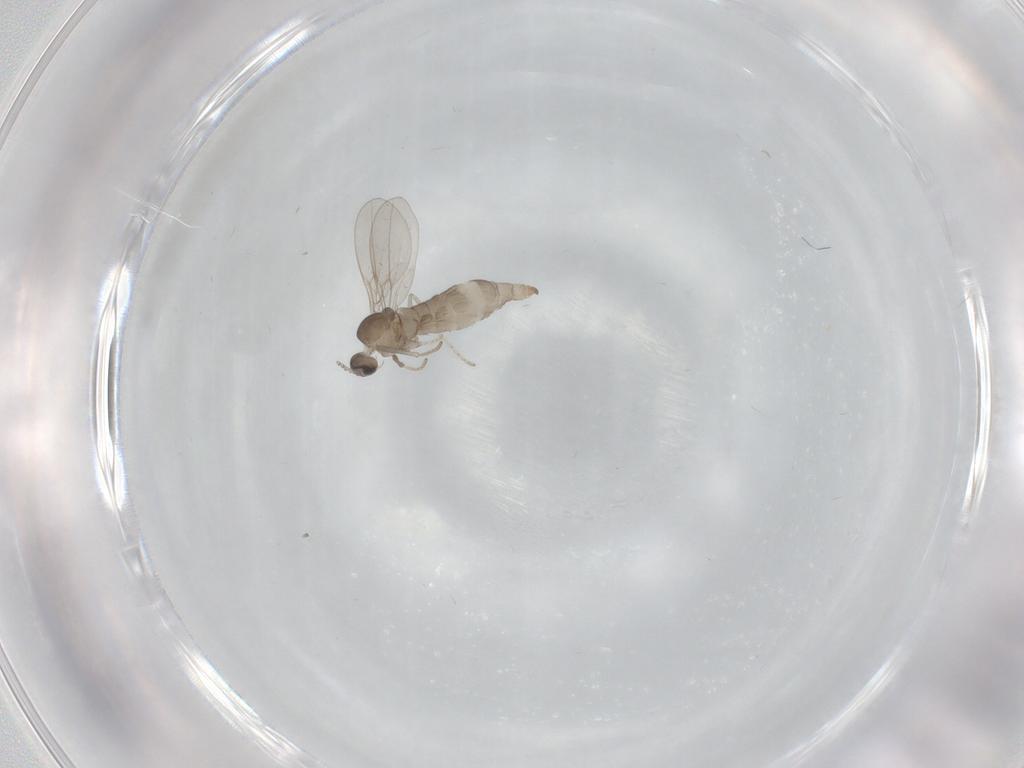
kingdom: Animalia
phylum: Arthropoda
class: Insecta
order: Diptera
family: Cecidomyiidae
